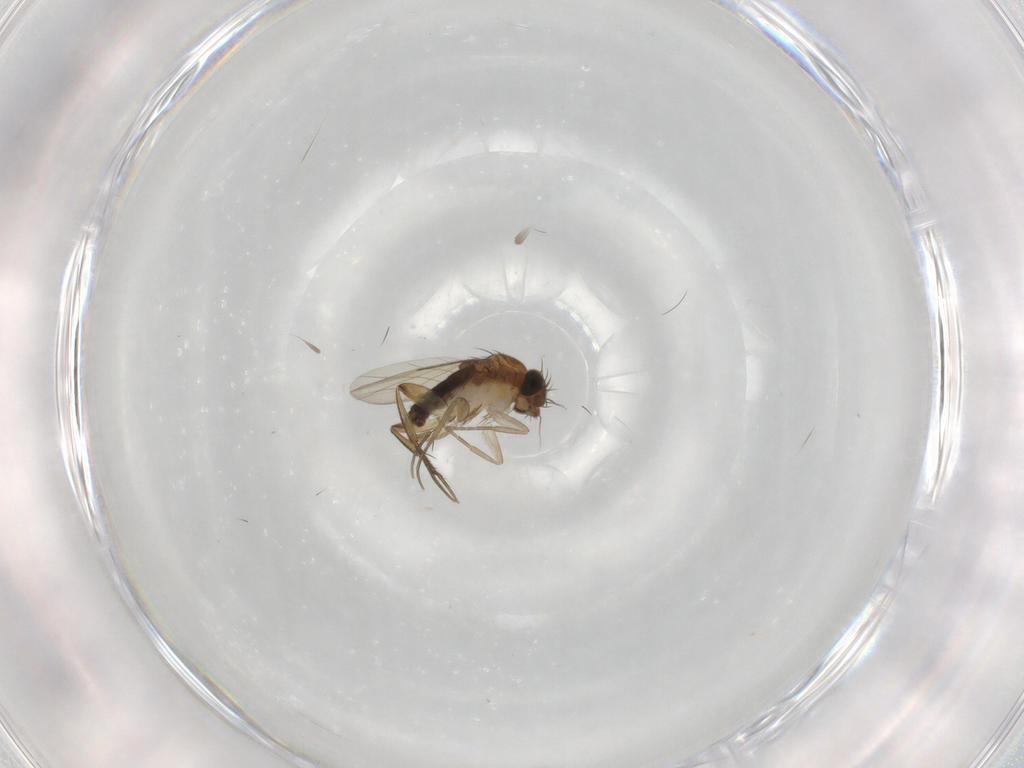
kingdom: Animalia
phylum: Arthropoda
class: Insecta
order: Diptera
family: Phoridae
